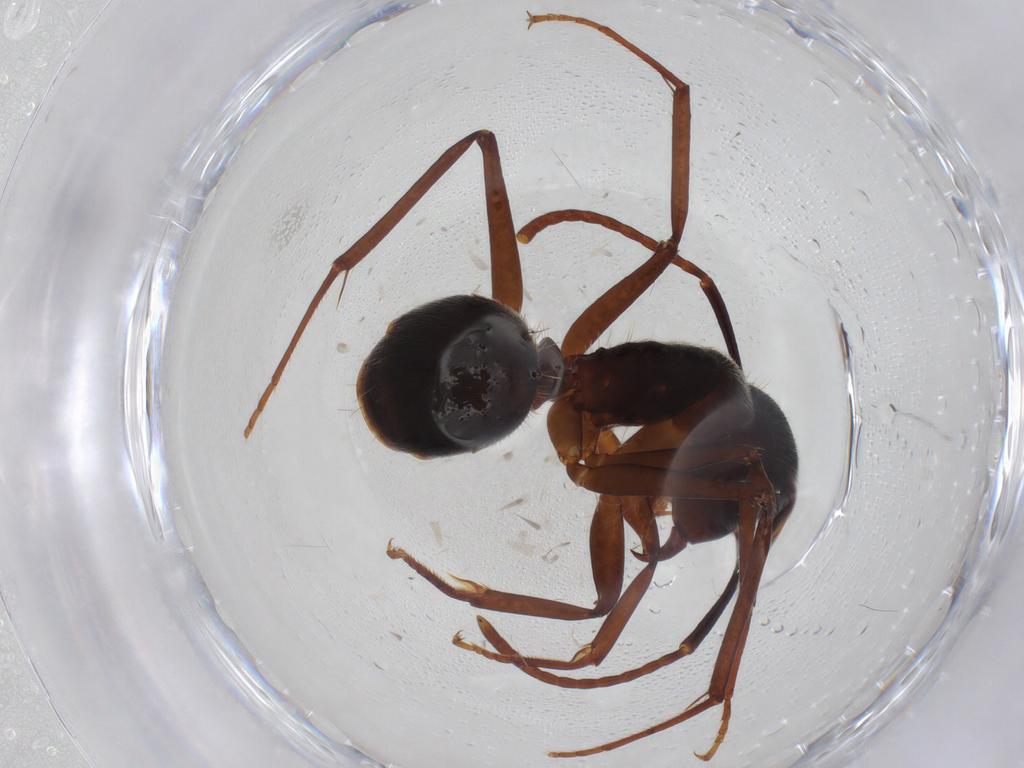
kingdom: Animalia
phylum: Arthropoda
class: Insecta
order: Hymenoptera
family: Formicidae
